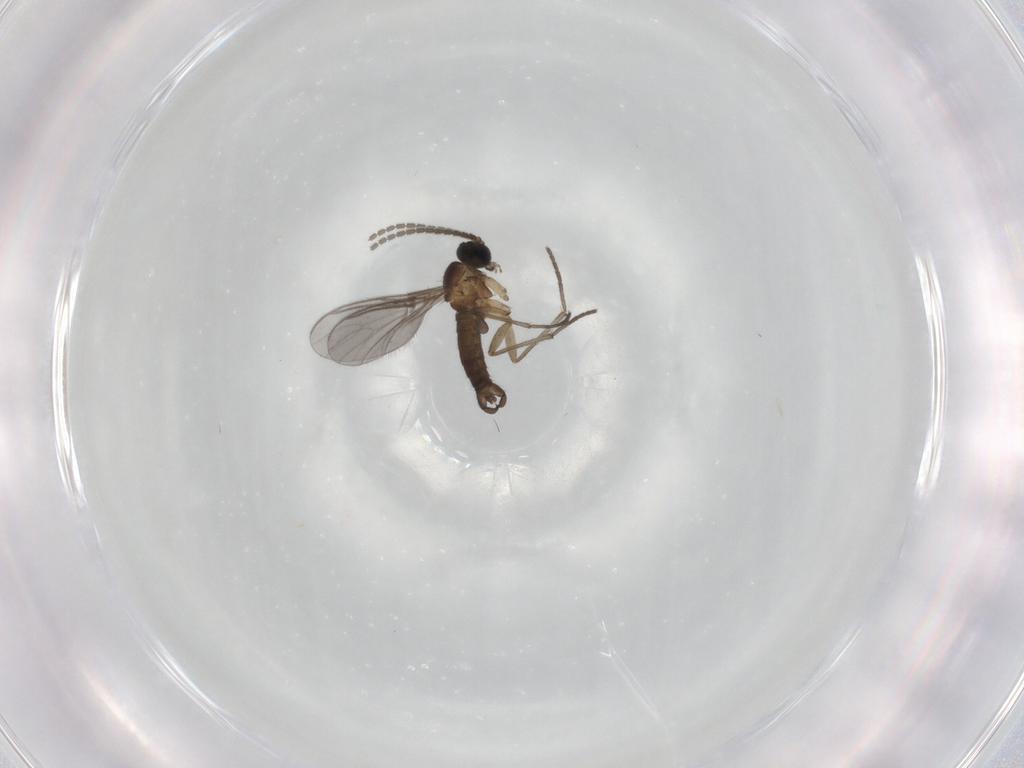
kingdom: Animalia
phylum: Arthropoda
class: Insecta
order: Diptera
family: Sciaridae
